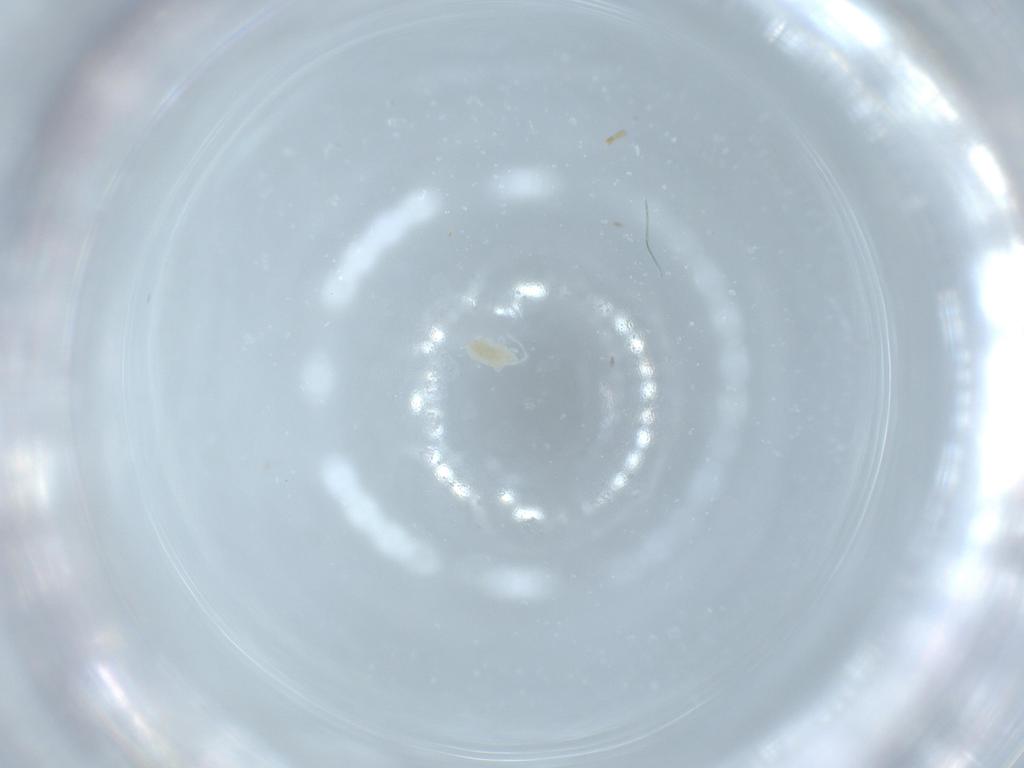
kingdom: Animalia
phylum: Arthropoda
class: Arachnida
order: Trombidiformes
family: Eupodidae
